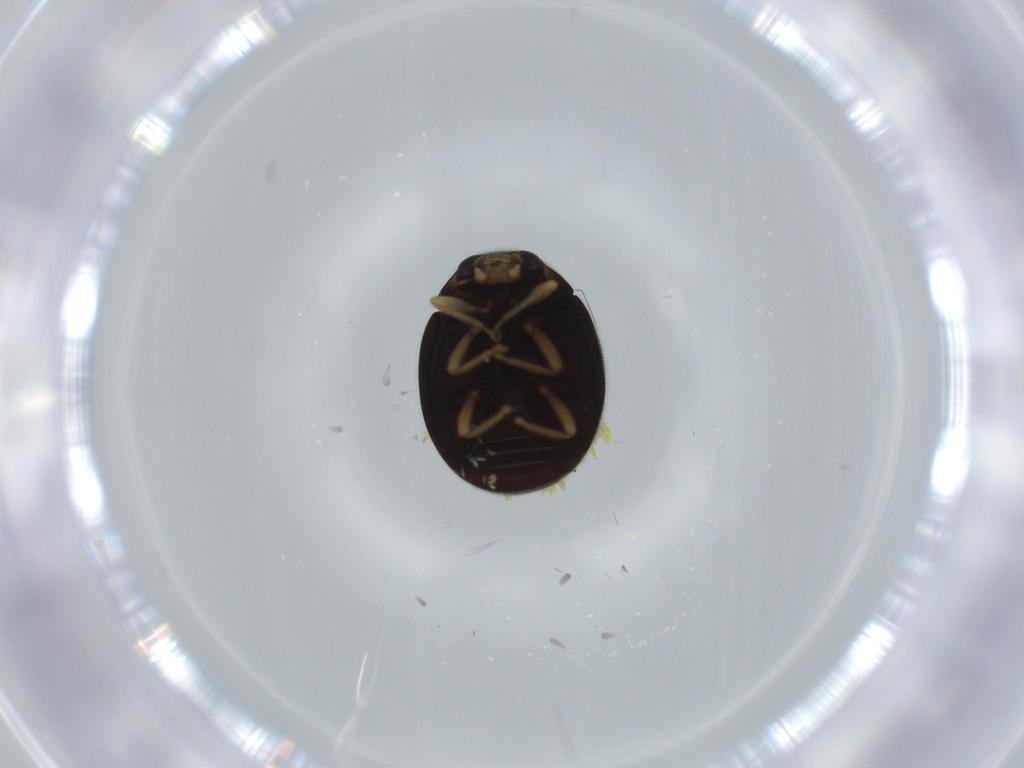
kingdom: Animalia
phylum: Arthropoda
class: Insecta
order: Coleoptera
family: Coccinellidae
